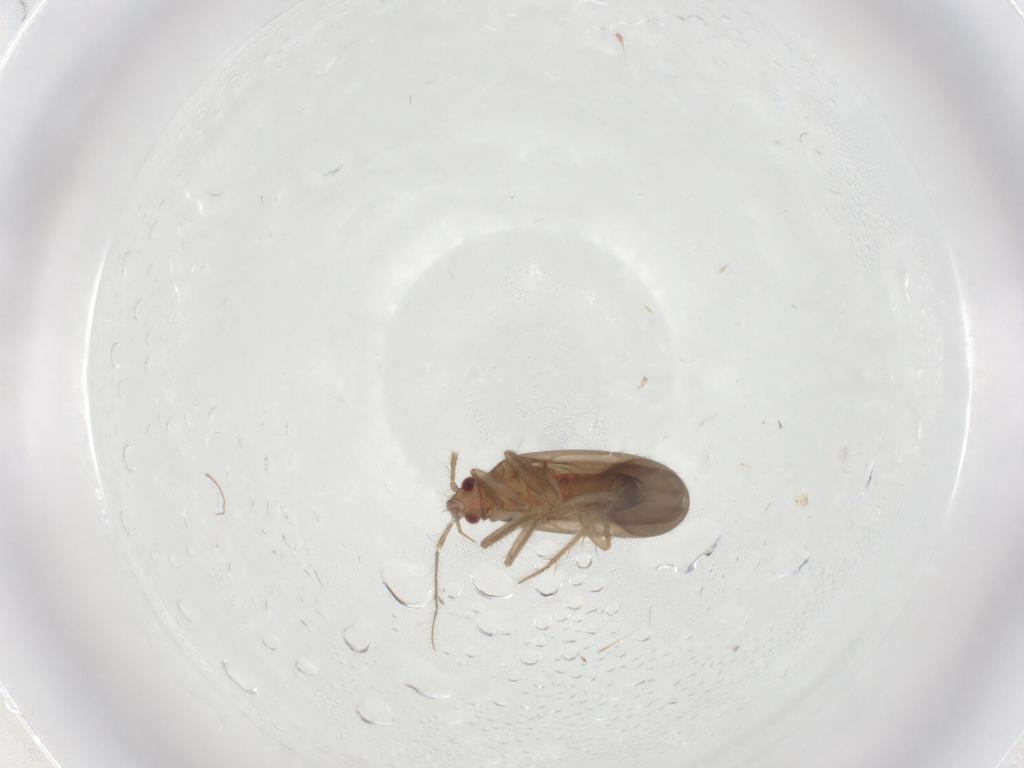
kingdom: Animalia
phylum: Arthropoda
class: Insecta
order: Hemiptera
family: Ceratocombidae
